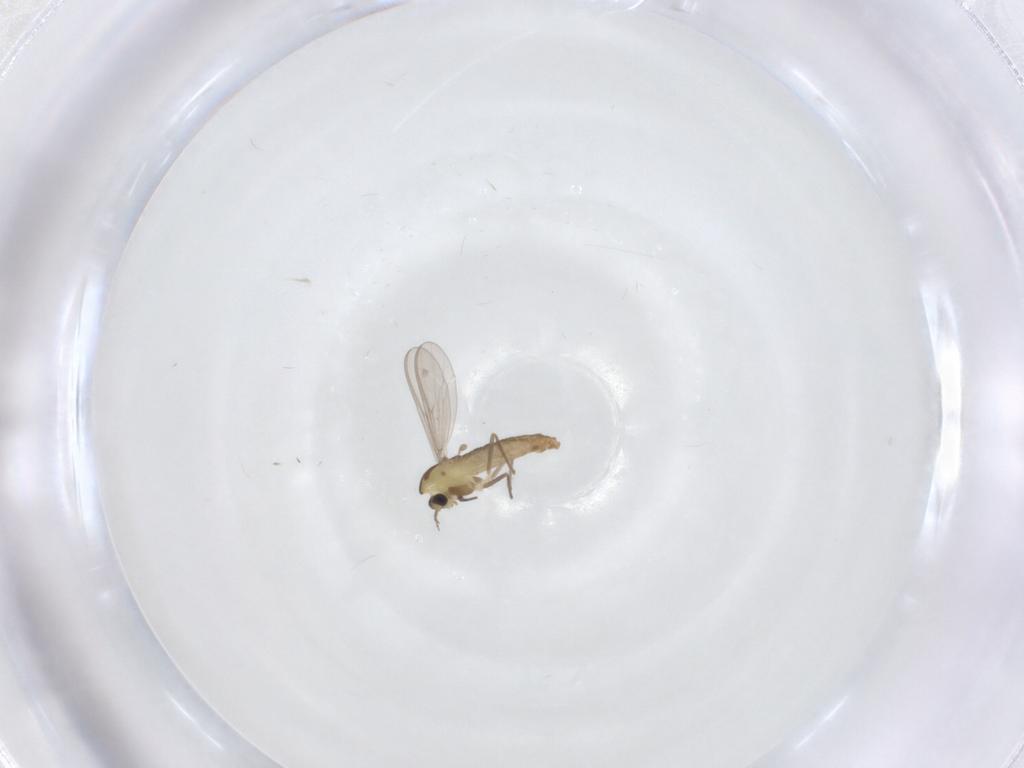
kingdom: Animalia
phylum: Arthropoda
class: Insecta
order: Diptera
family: Chironomidae
